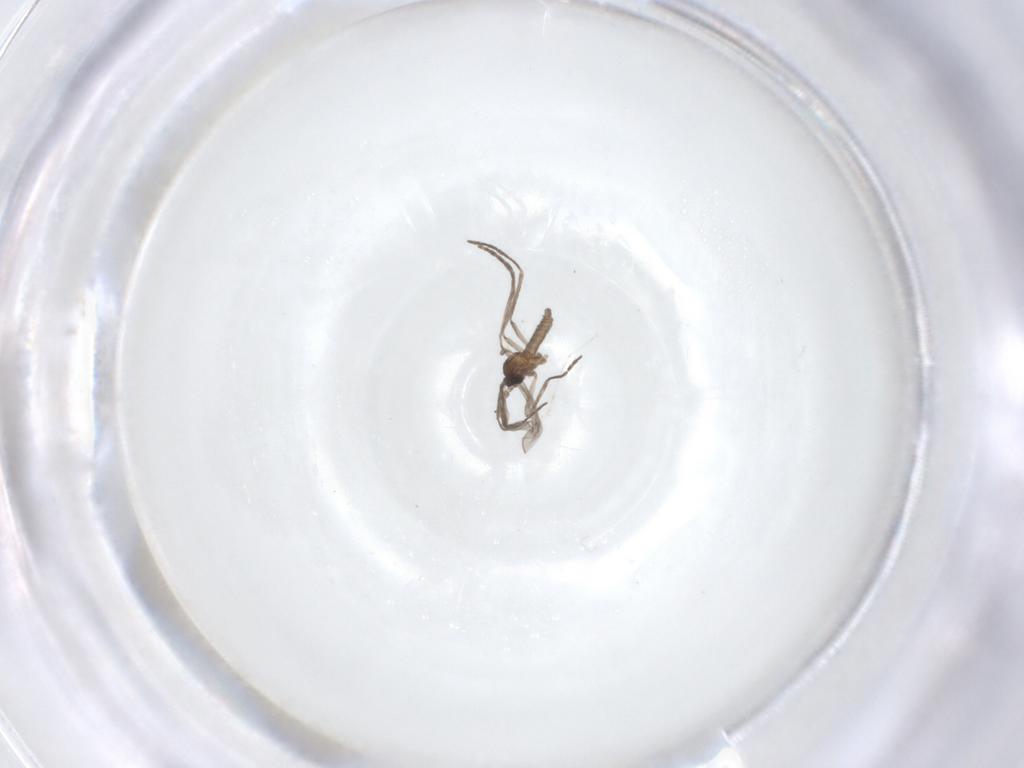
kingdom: Animalia
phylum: Arthropoda
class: Insecta
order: Diptera
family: Cecidomyiidae
